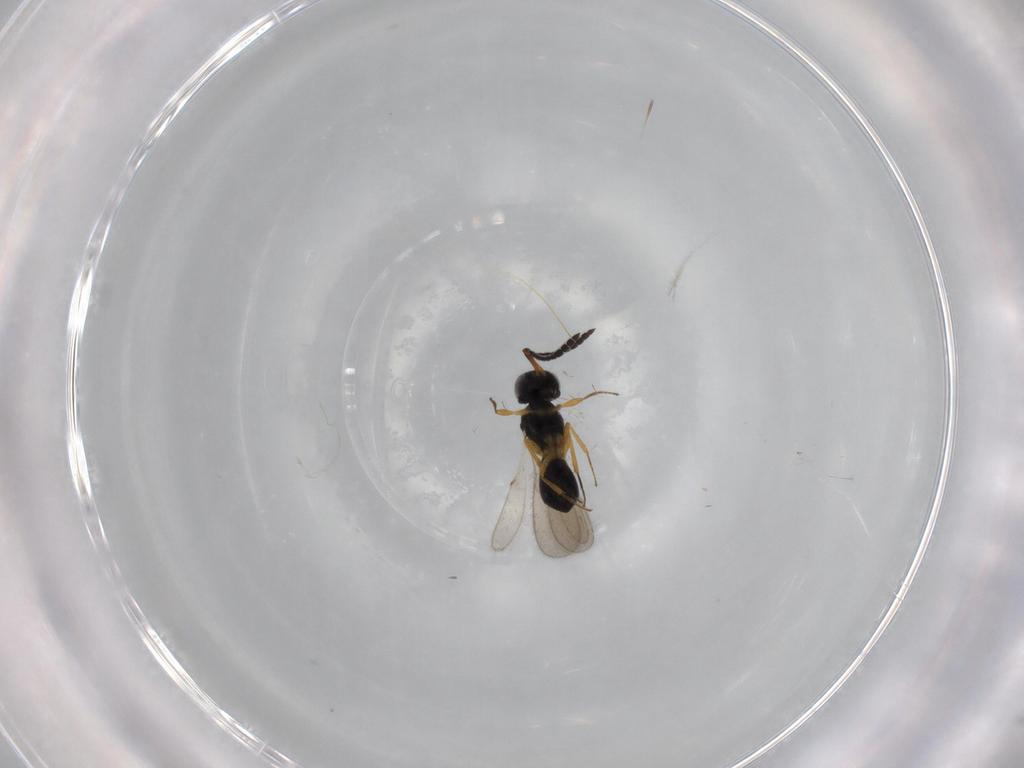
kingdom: Animalia
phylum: Arthropoda
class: Insecta
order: Hymenoptera
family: Scelionidae
